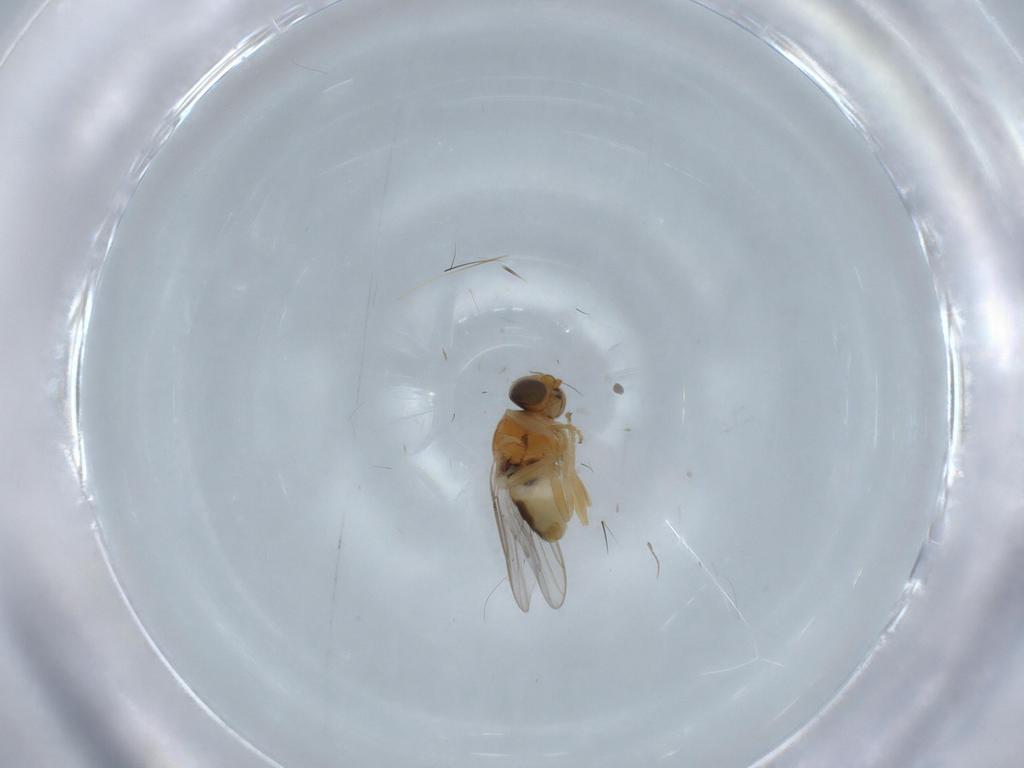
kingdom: Animalia
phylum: Arthropoda
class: Insecta
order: Diptera
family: Chloropidae
